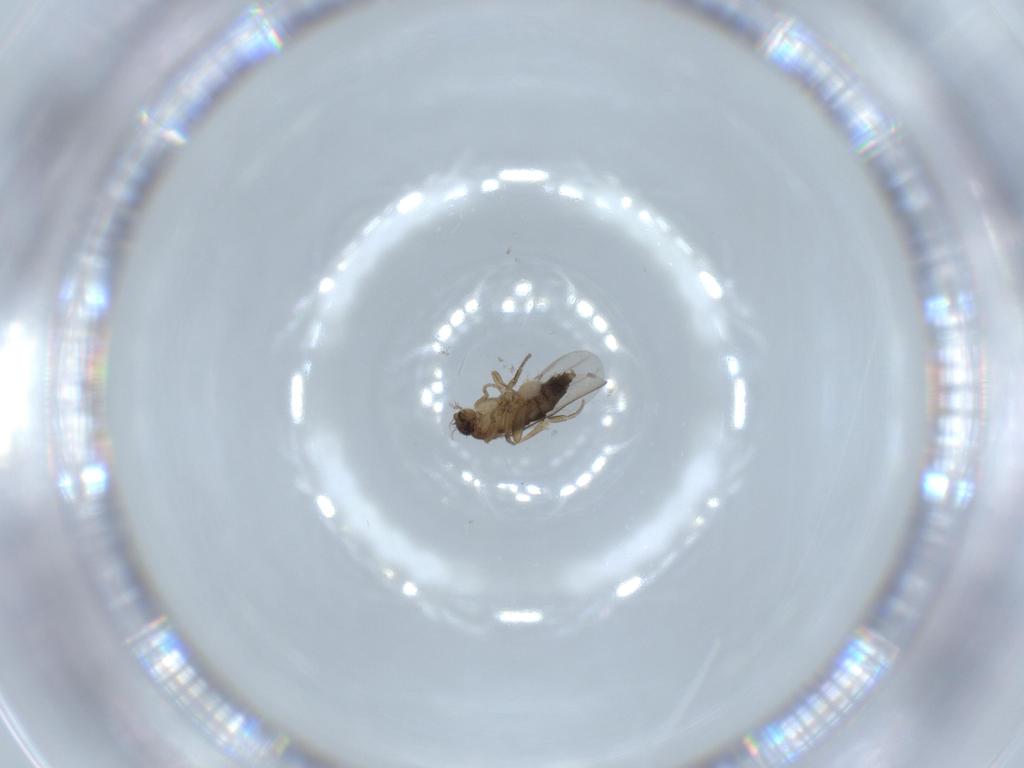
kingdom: Animalia
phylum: Arthropoda
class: Insecta
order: Diptera
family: Phoridae
